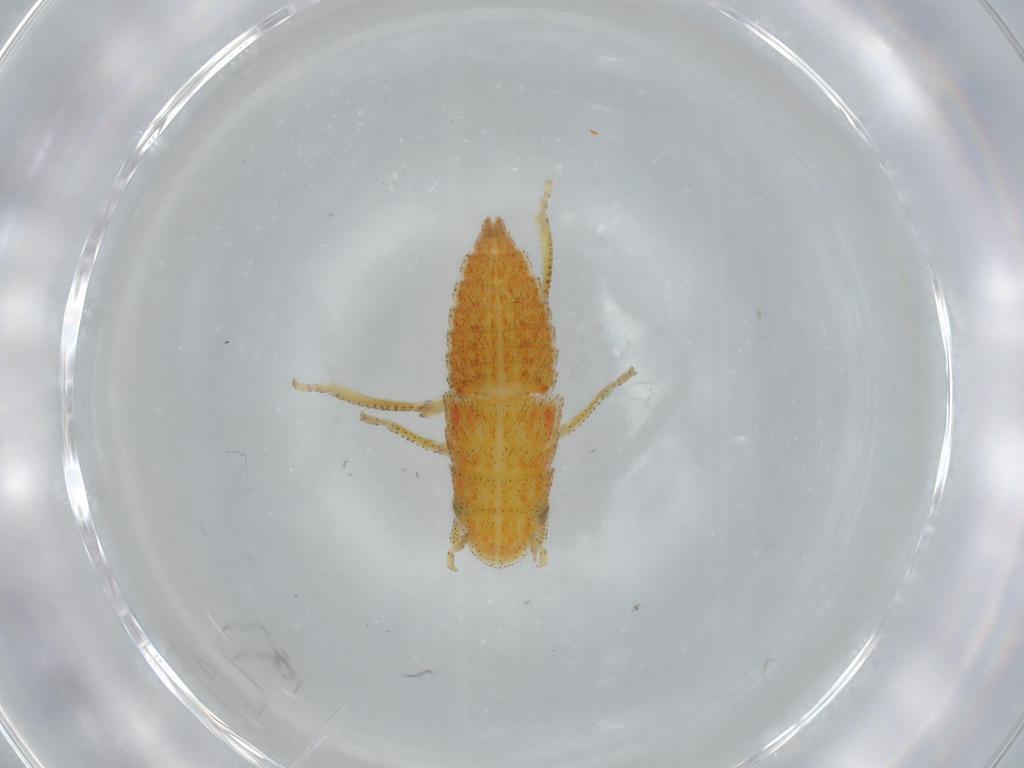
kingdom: Animalia
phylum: Arthropoda
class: Insecta
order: Hemiptera
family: Cicadellidae
